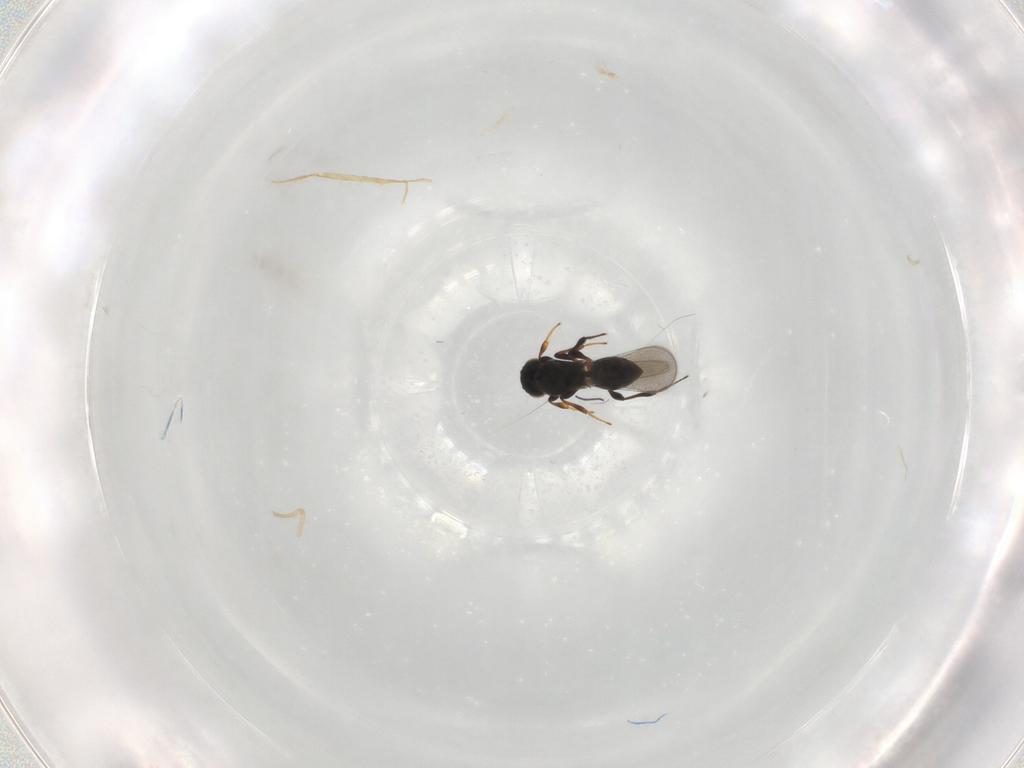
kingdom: Animalia
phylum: Arthropoda
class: Insecta
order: Hymenoptera
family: Platygastridae
